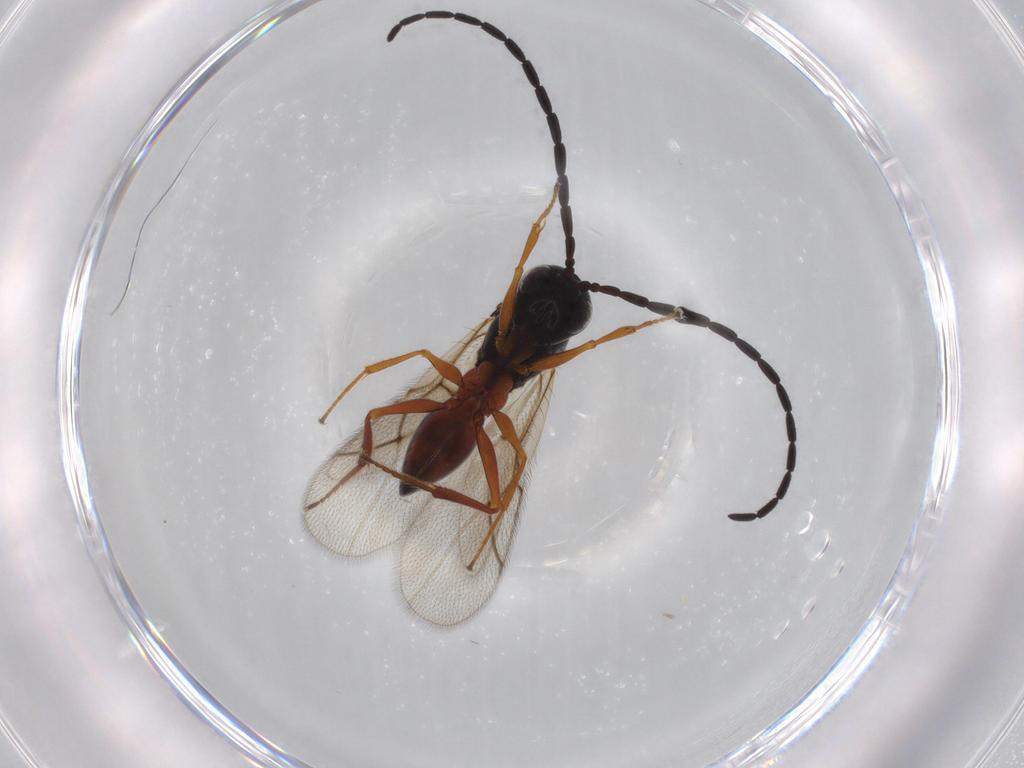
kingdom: Animalia
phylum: Arthropoda
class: Insecta
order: Hymenoptera
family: Figitidae
